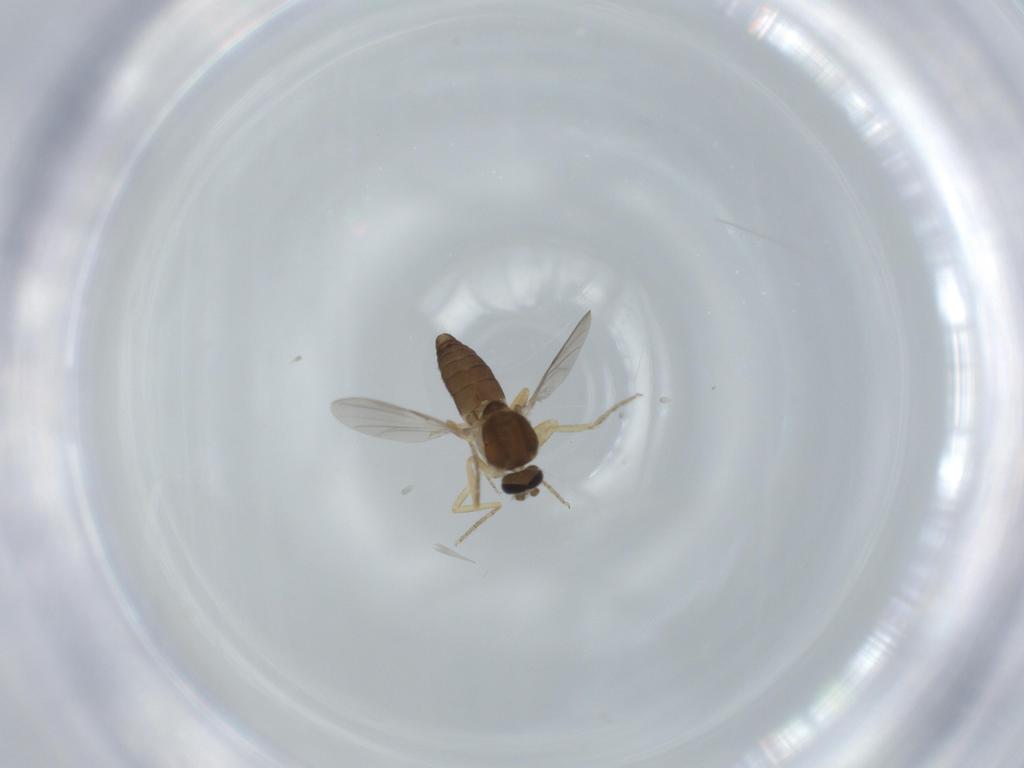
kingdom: Animalia
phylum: Arthropoda
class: Insecta
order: Diptera
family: Ceratopogonidae
